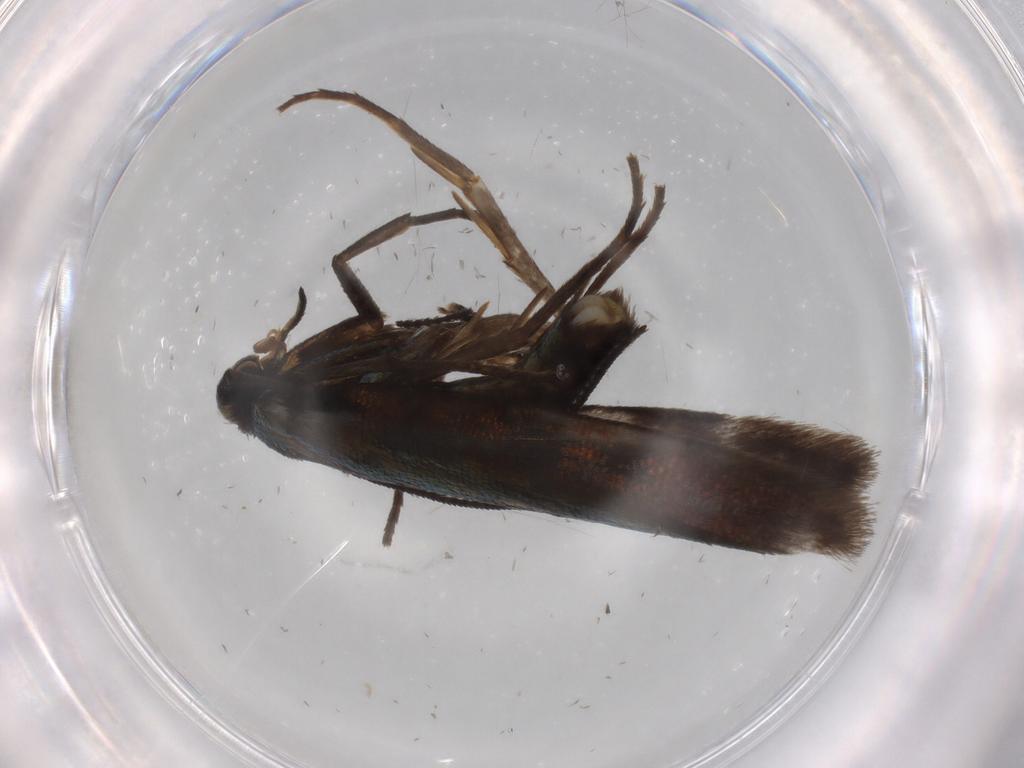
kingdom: Animalia
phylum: Arthropoda
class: Insecta
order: Lepidoptera
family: Argyresthiidae
